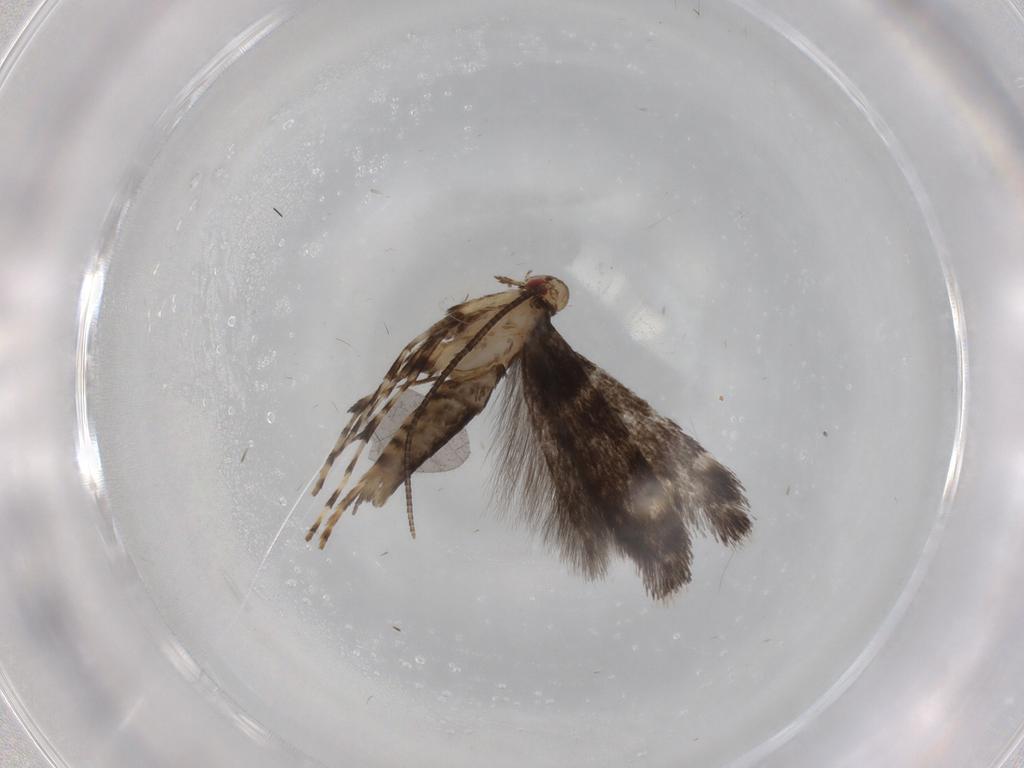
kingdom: Animalia
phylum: Arthropoda
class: Insecta
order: Lepidoptera
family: Gracillariidae
